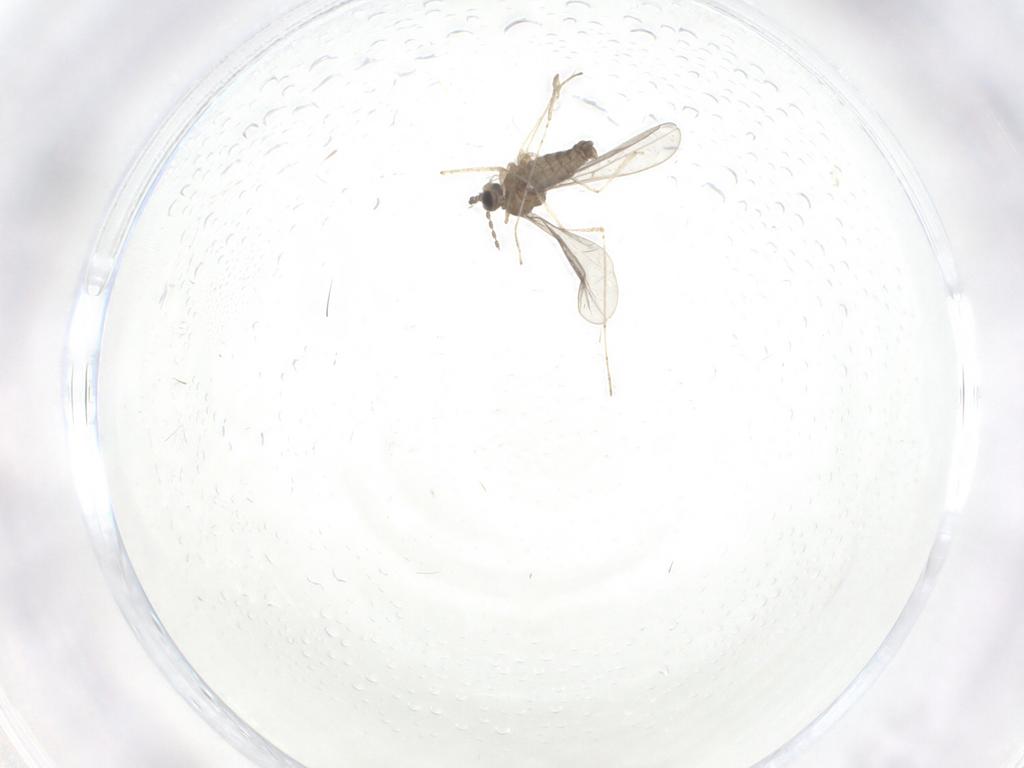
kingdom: Animalia
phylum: Arthropoda
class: Insecta
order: Diptera
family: Cecidomyiidae
